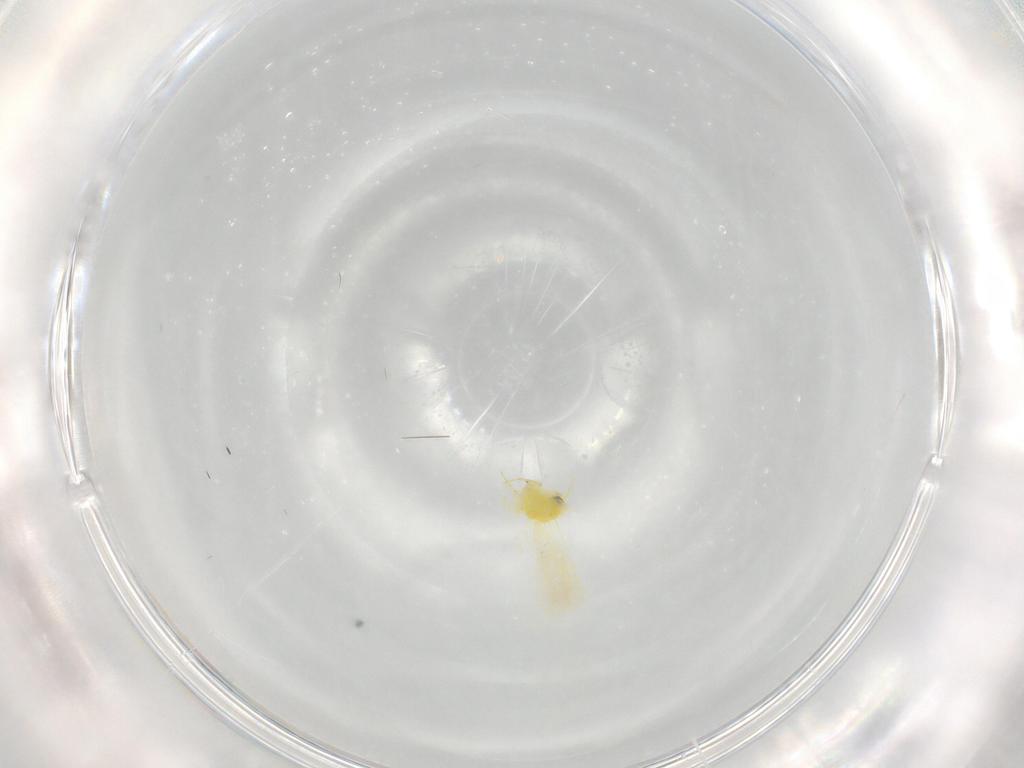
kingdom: Animalia
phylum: Arthropoda
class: Insecta
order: Hemiptera
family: Aleyrodidae
